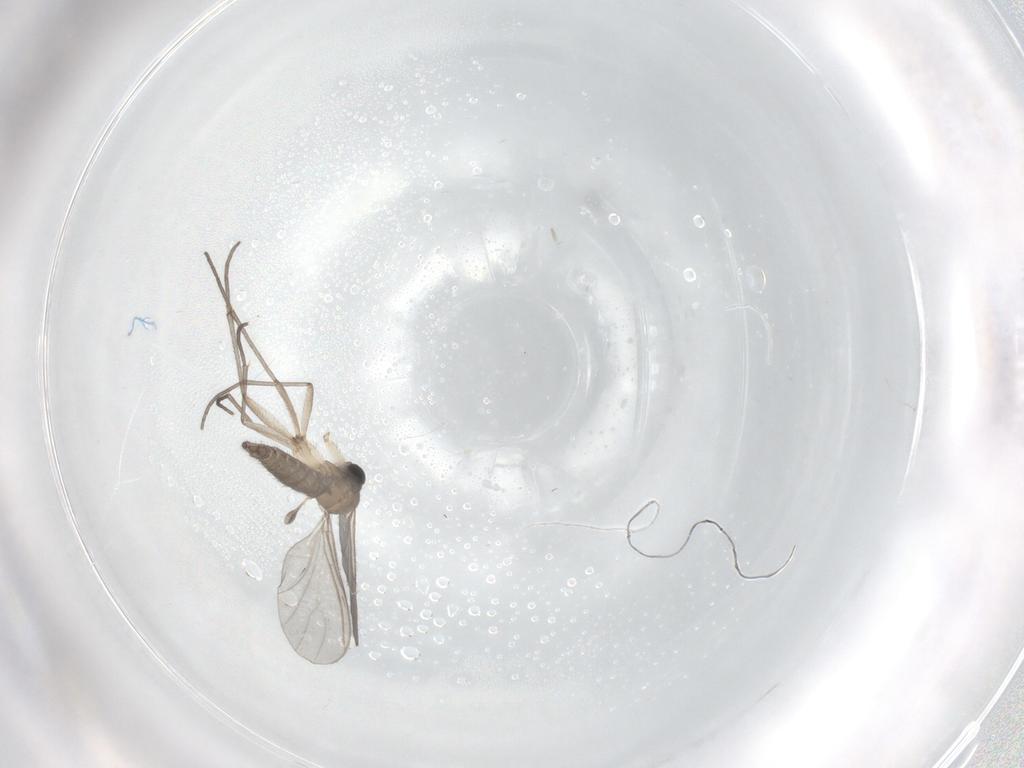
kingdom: Animalia
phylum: Arthropoda
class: Insecta
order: Diptera
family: Sciaridae
